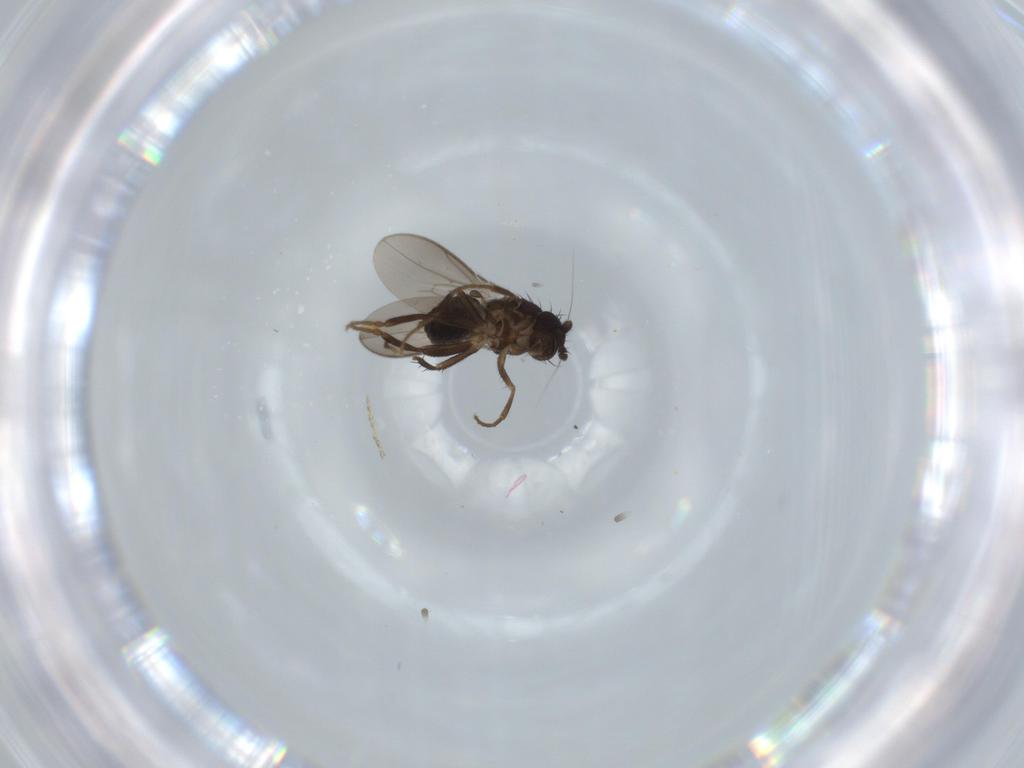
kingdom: Animalia
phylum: Arthropoda
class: Insecta
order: Diptera
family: Sphaeroceridae
